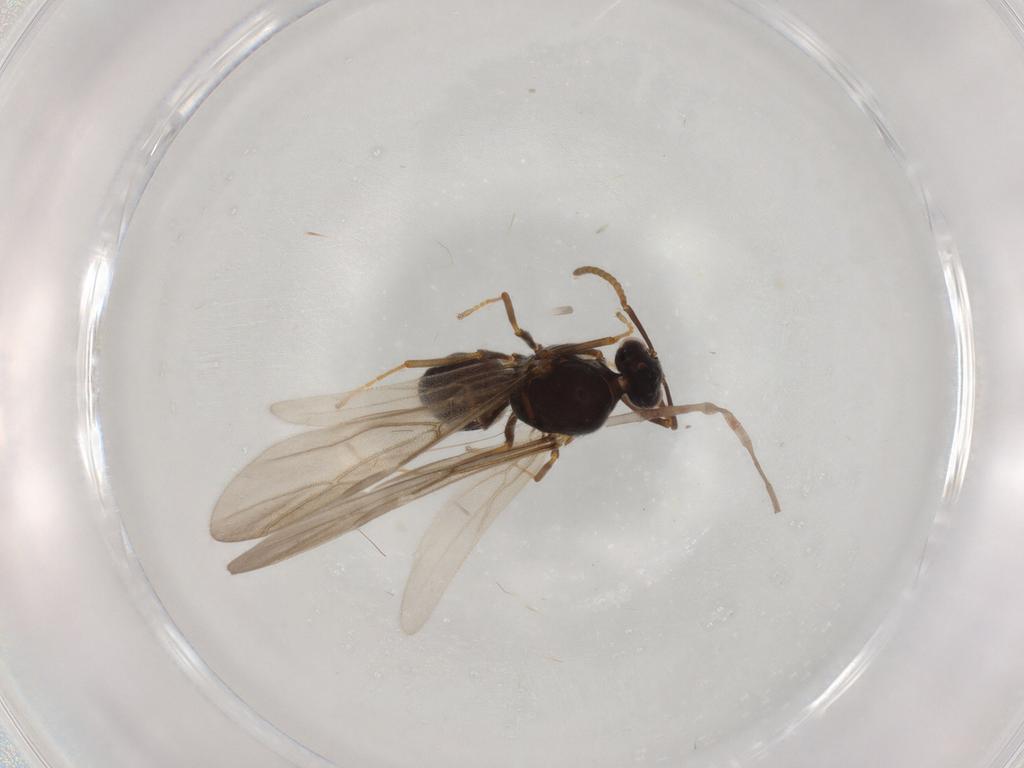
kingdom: Animalia
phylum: Arthropoda
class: Insecta
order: Hymenoptera
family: Formicidae
